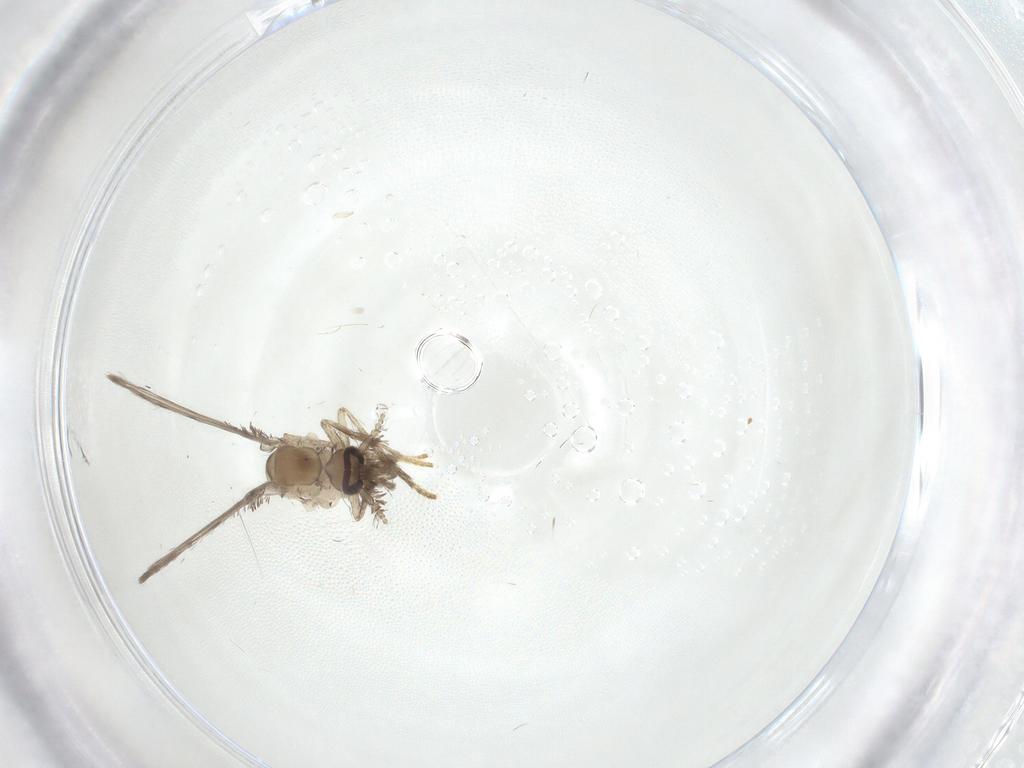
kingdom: Animalia
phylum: Arthropoda
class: Insecta
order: Diptera
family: Psychodidae
